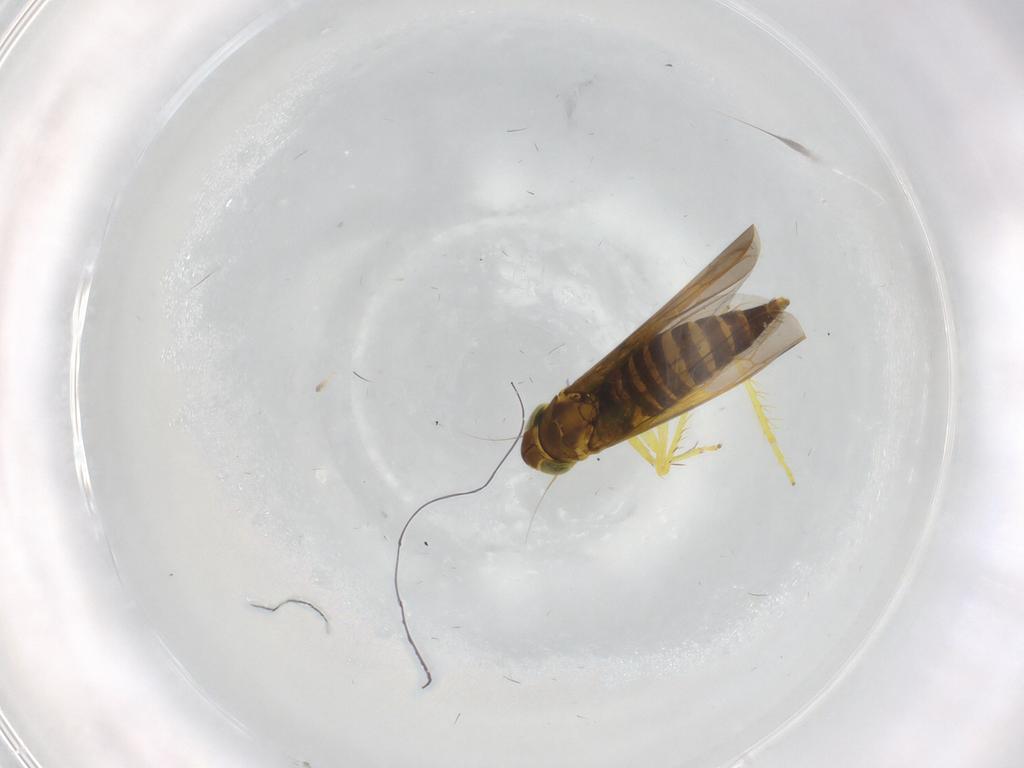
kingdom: Animalia
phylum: Arthropoda
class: Insecta
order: Hemiptera
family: Cicadellidae
